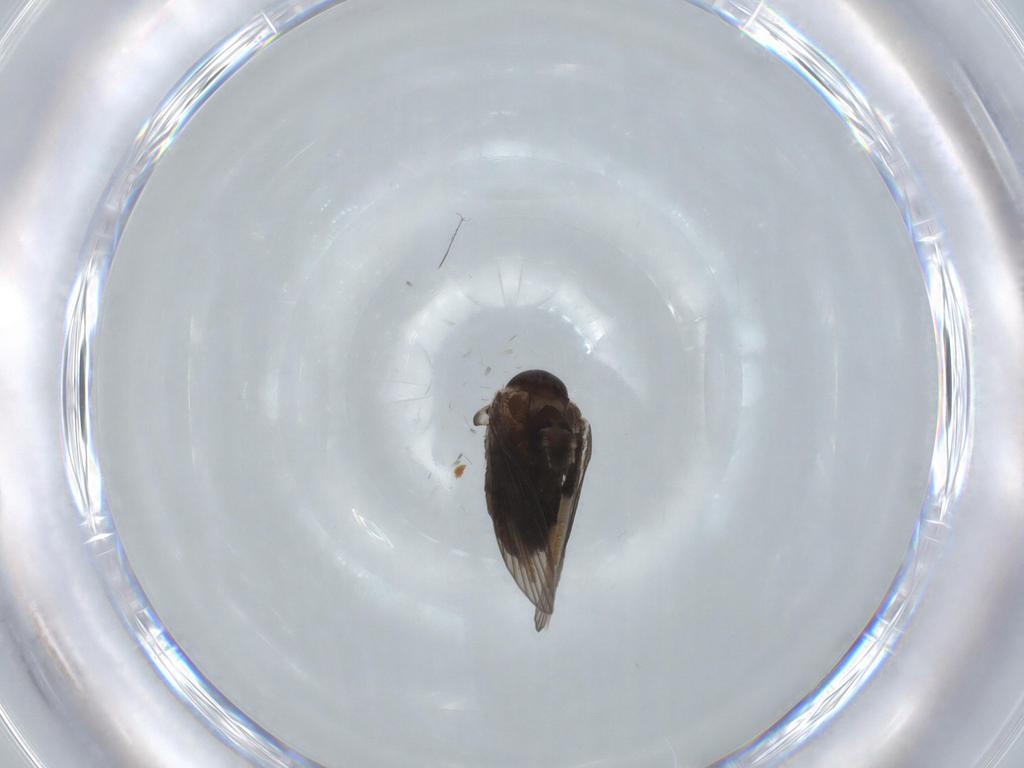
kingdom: Animalia
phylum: Arthropoda
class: Insecta
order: Diptera
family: Psychodidae
